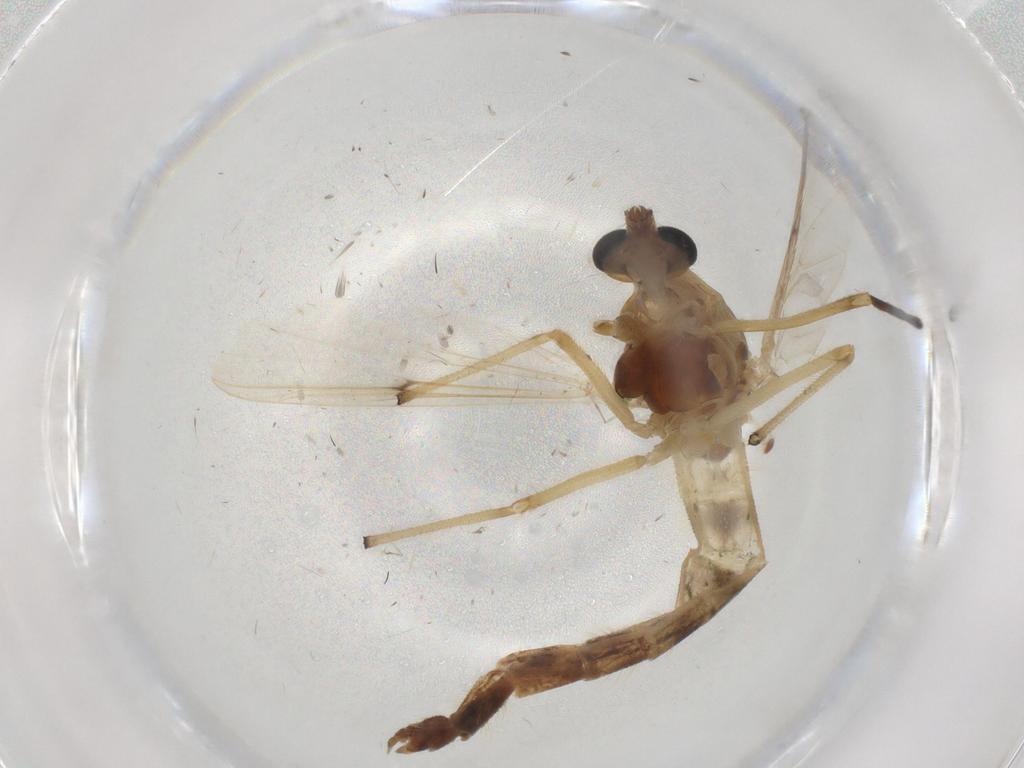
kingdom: Animalia
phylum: Arthropoda
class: Insecta
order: Diptera
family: Chironomidae
